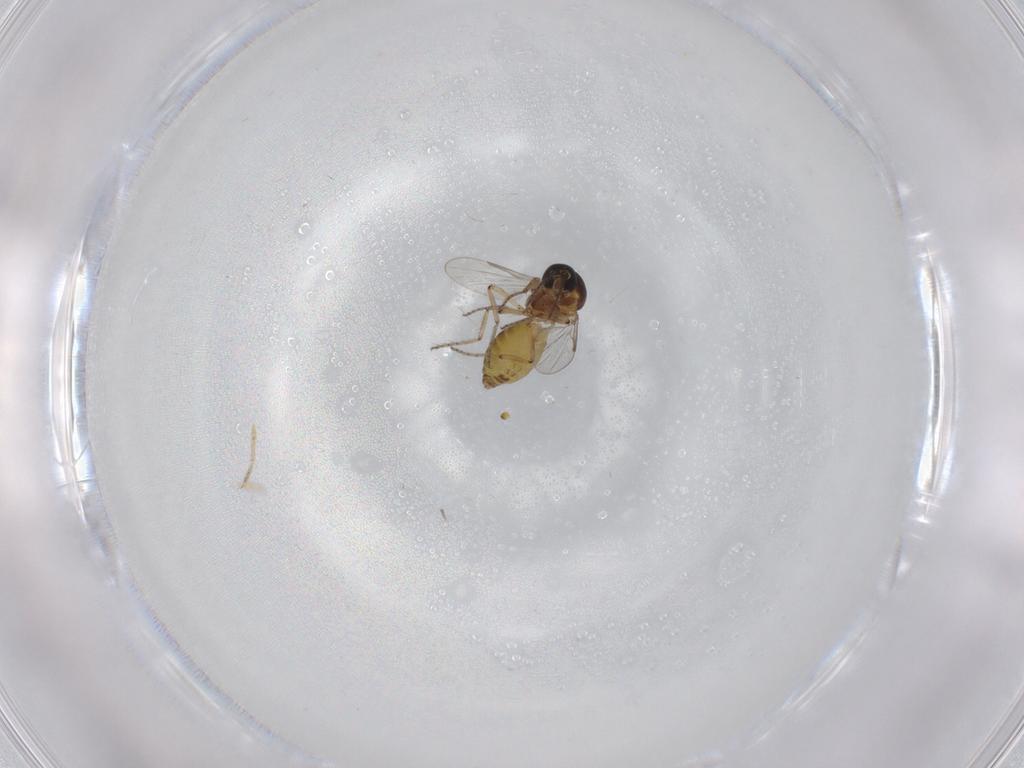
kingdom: Animalia
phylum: Arthropoda
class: Insecta
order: Diptera
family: Ceratopogonidae
